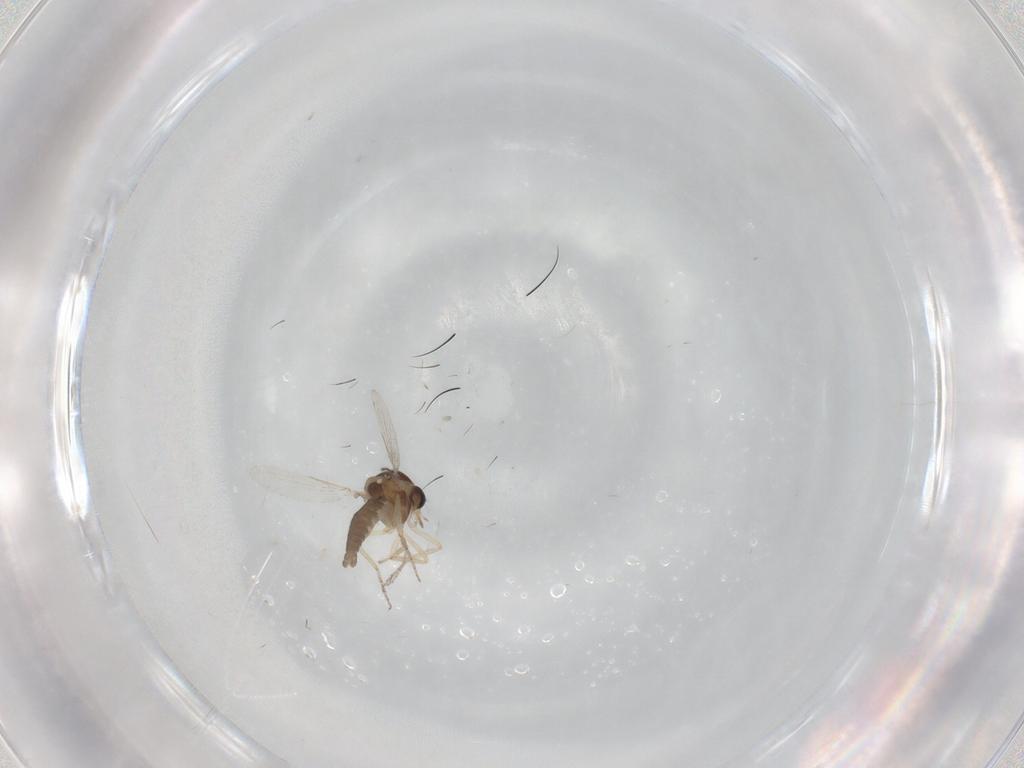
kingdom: Animalia
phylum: Arthropoda
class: Insecta
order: Diptera
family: Ceratopogonidae
